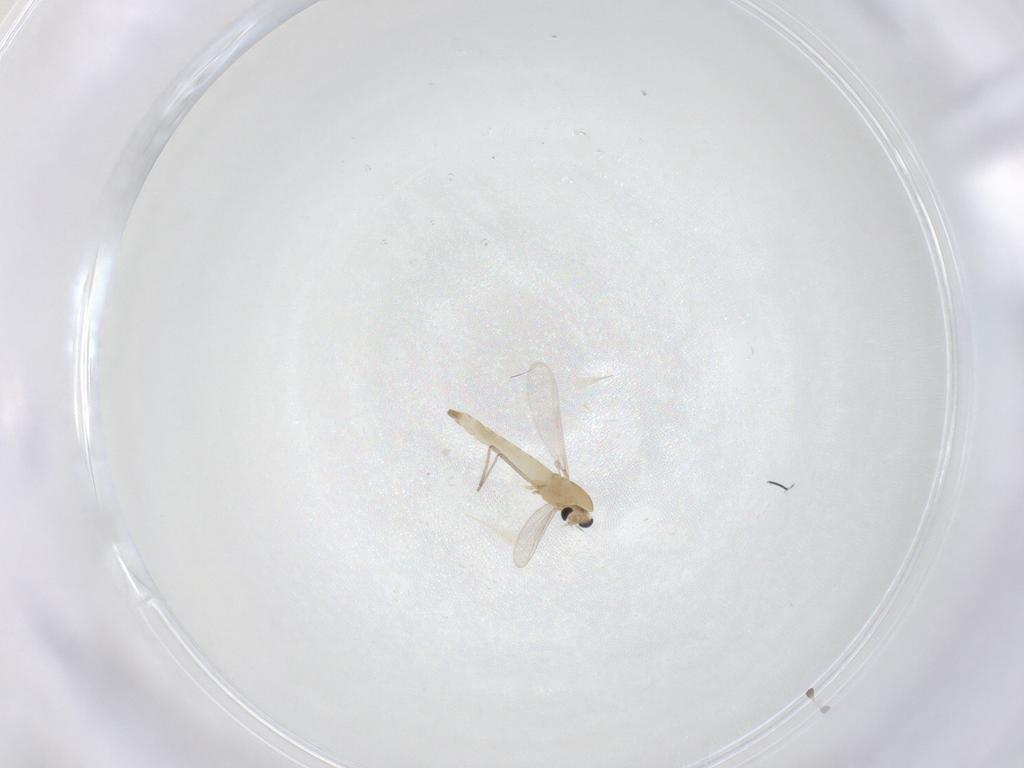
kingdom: Animalia
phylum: Arthropoda
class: Insecta
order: Diptera
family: Chironomidae
